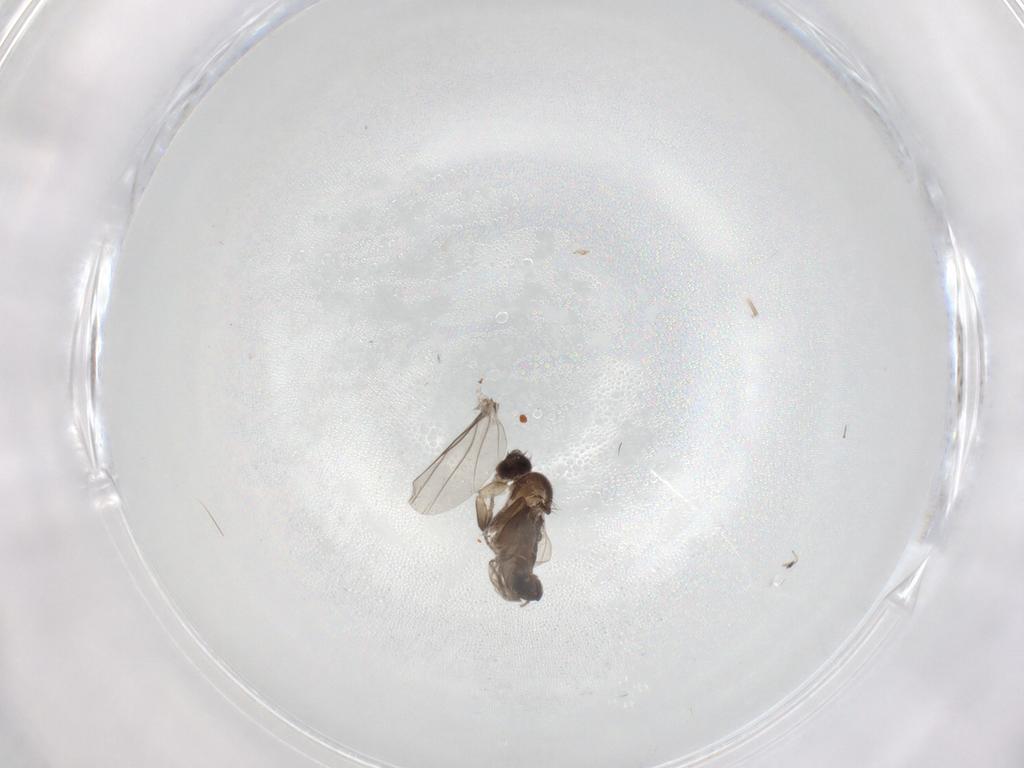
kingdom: Animalia
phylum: Arthropoda
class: Insecta
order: Diptera
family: Phoridae
